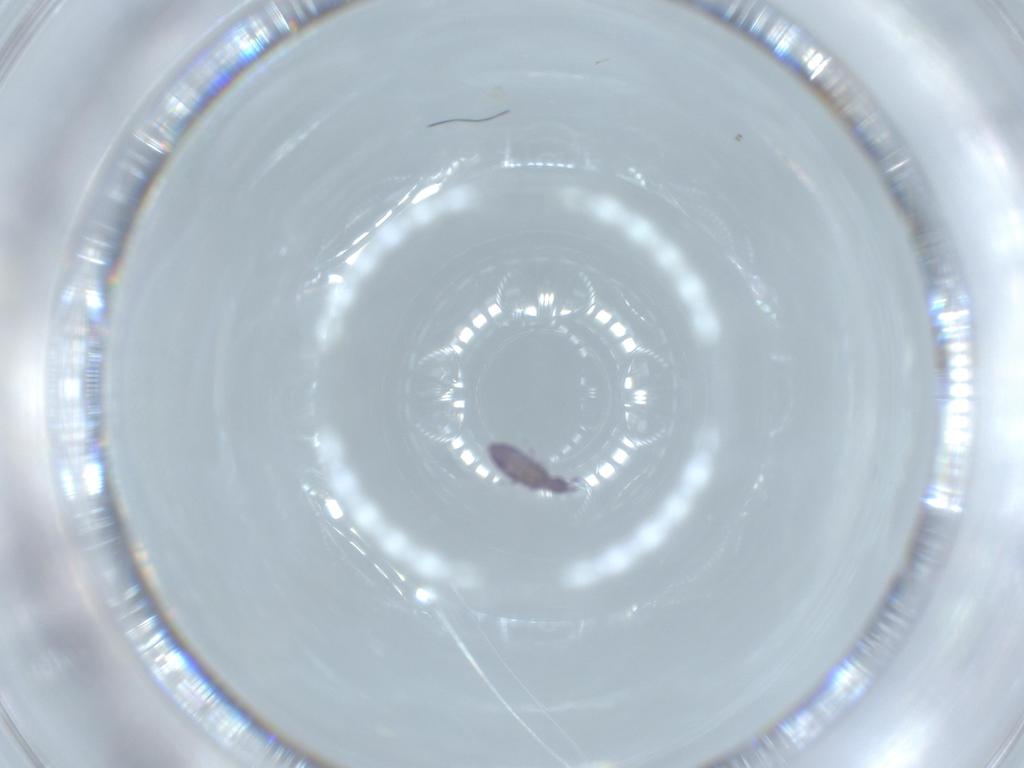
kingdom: Animalia
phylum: Arthropoda
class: Collembola
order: Entomobryomorpha
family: Entomobryidae
